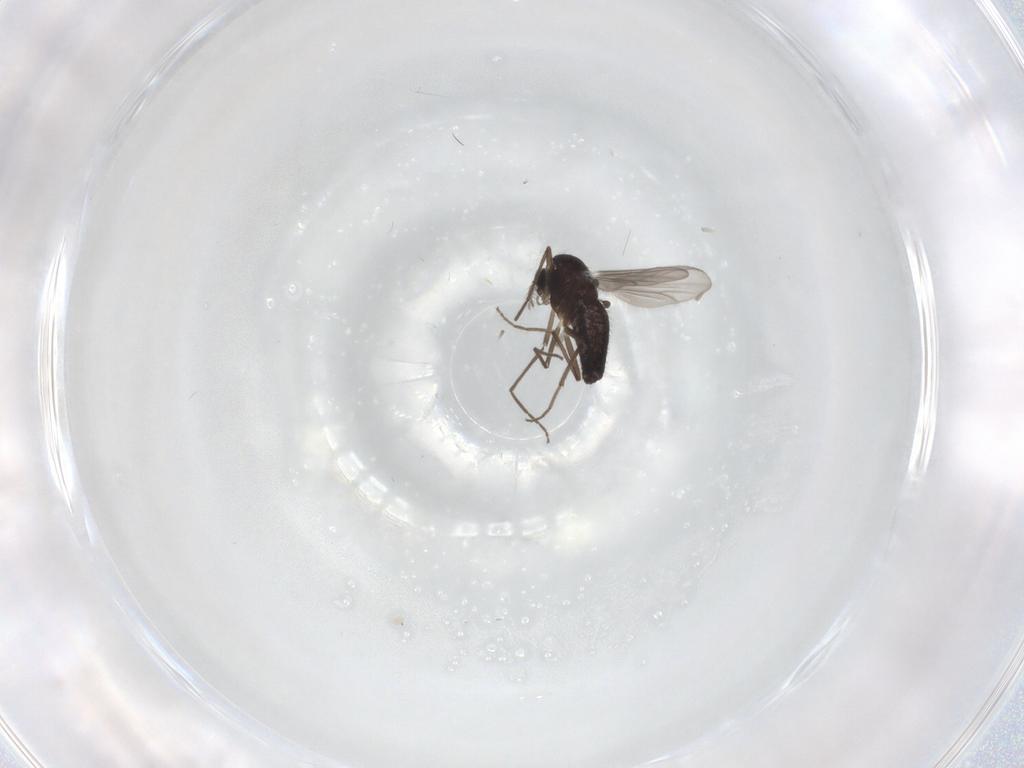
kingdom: Animalia
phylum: Arthropoda
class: Insecta
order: Diptera
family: Chironomidae
